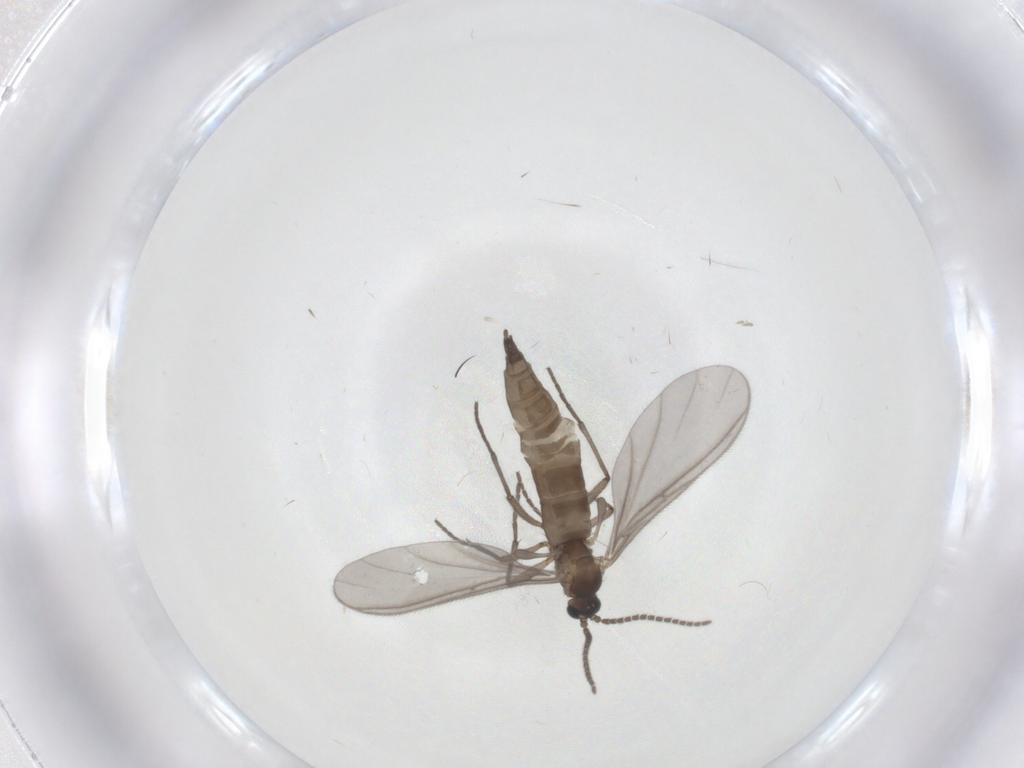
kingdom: Animalia
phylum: Arthropoda
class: Insecta
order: Diptera
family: Sciaridae
